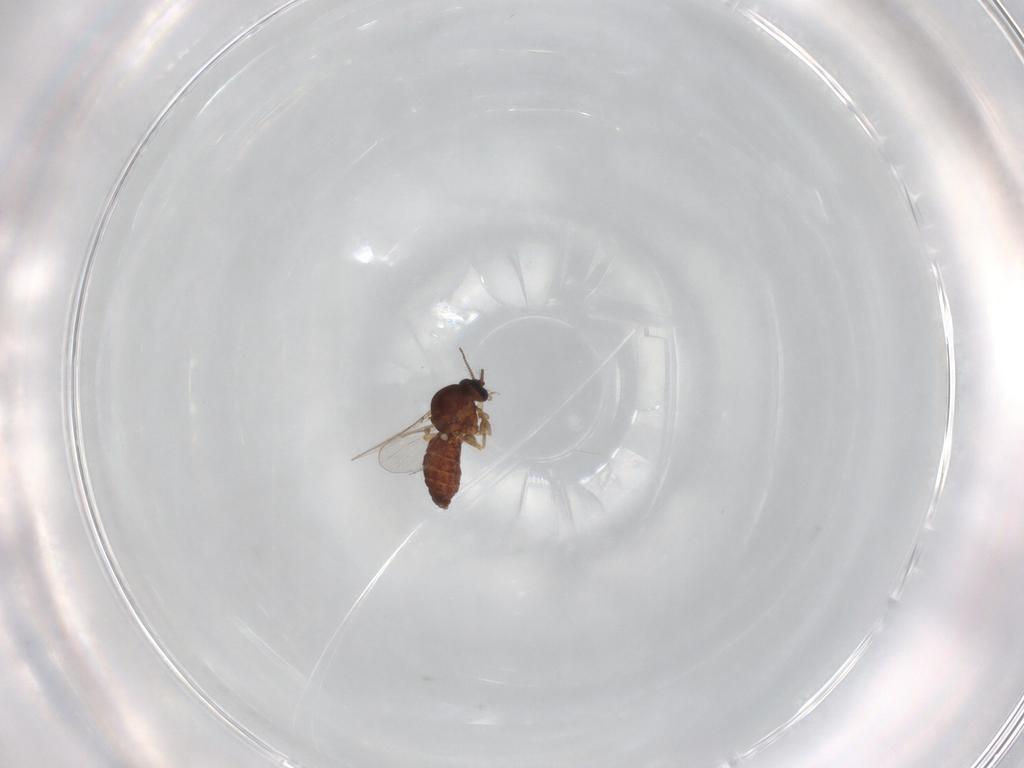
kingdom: Animalia
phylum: Arthropoda
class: Insecta
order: Diptera
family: Ceratopogonidae
